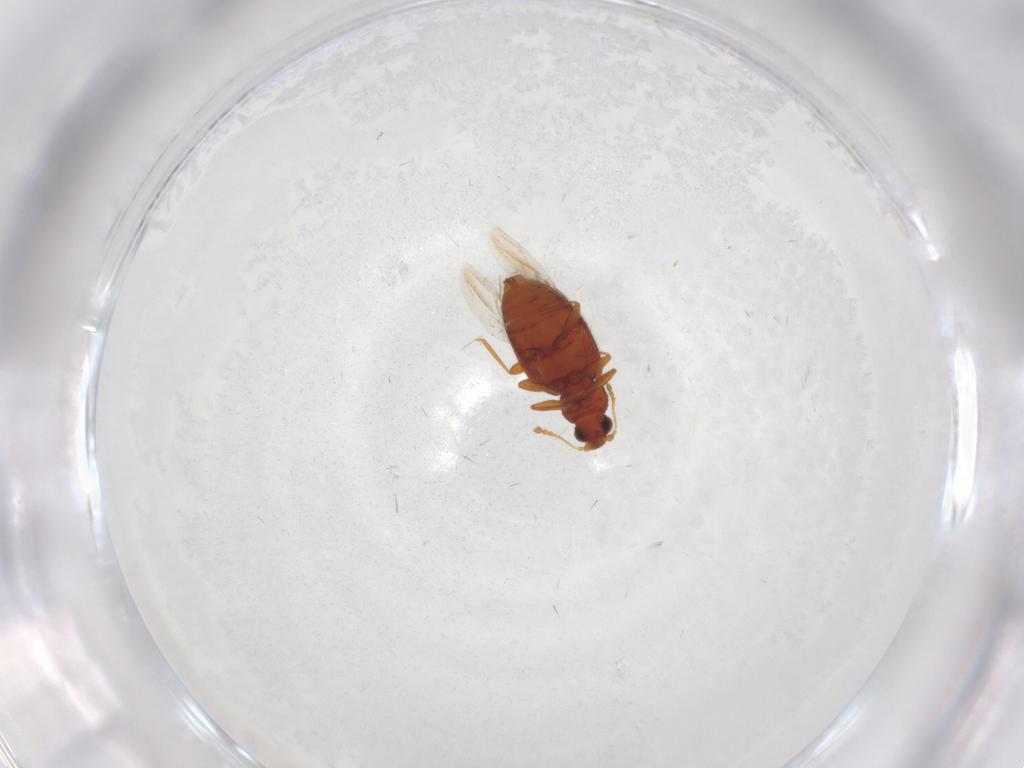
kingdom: Animalia
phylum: Arthropoda
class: Insecta
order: Coleoptera
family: Latridiidae
